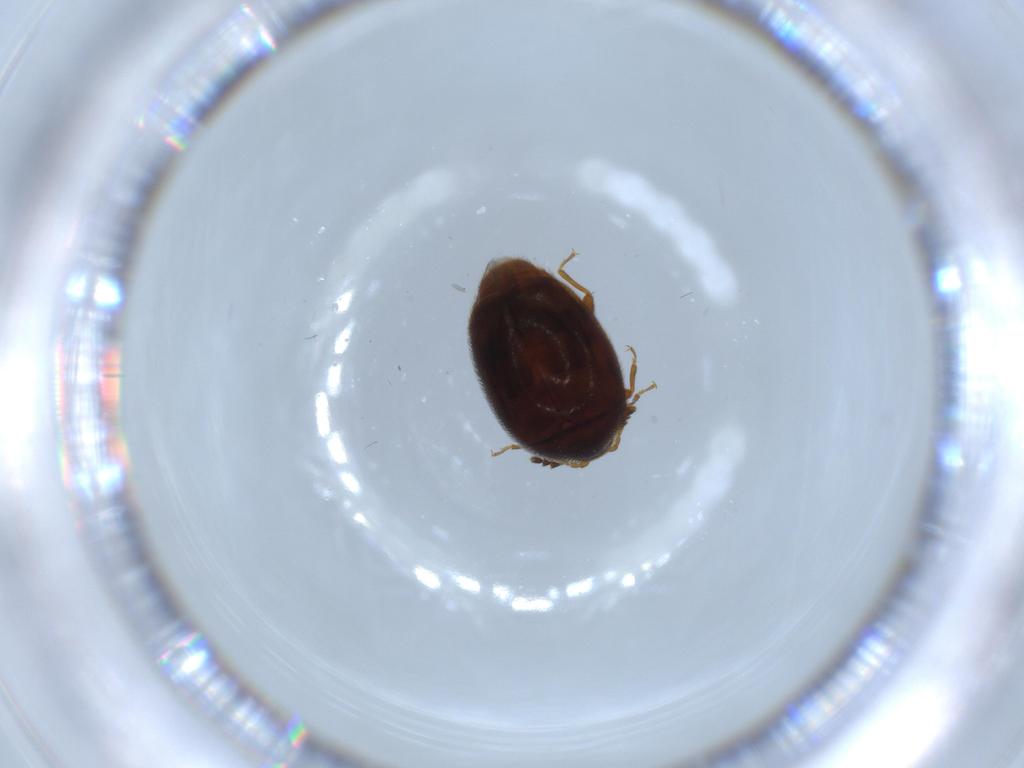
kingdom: Animalia
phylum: Arthropoda
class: Insecta
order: Coleoptera
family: Corylophidae
